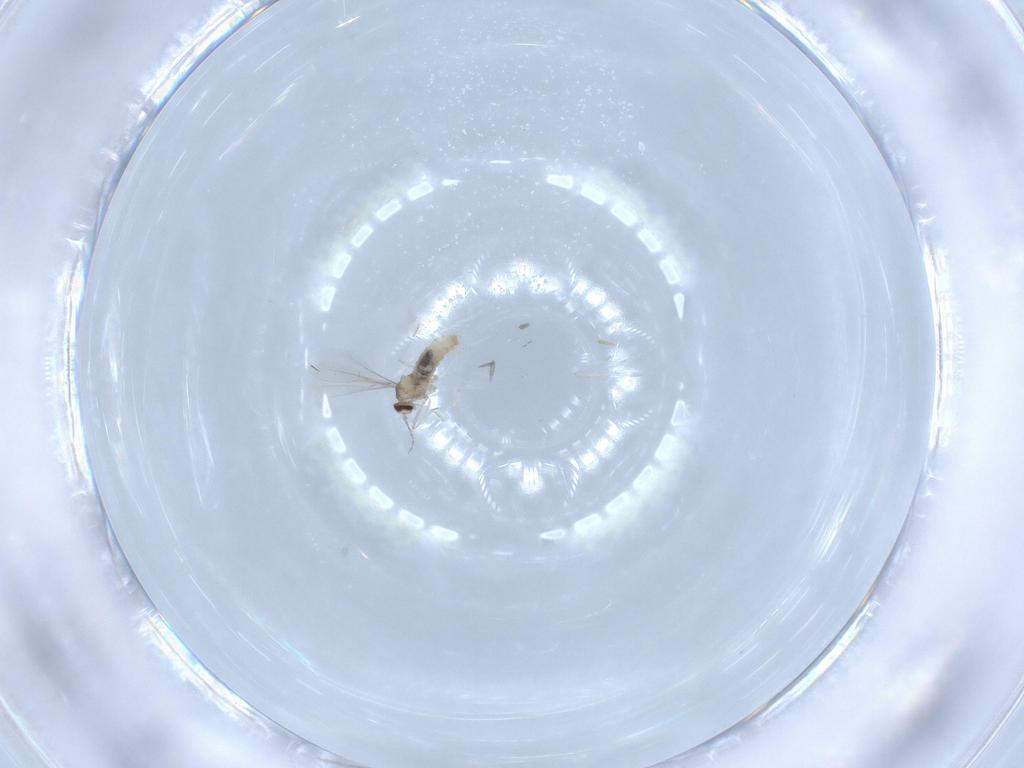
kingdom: Animalia
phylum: Arthropoda
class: Insecta
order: Diptera
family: Cecidomyiidae
